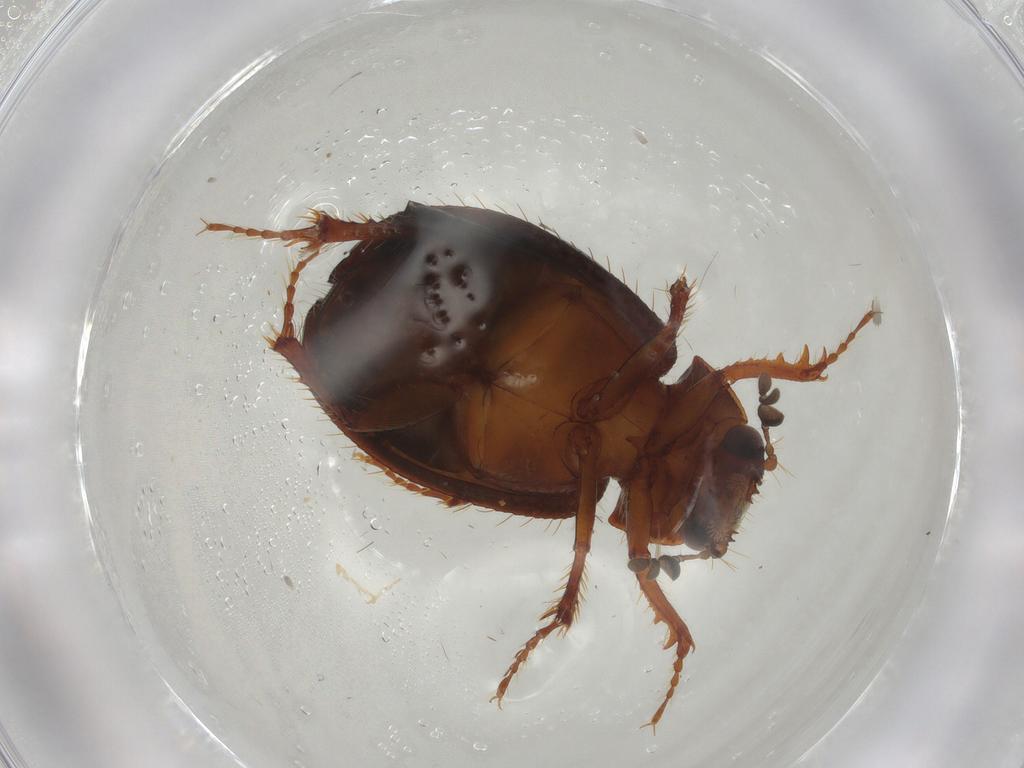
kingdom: Animalia
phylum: Arthropoda
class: Insecta
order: Coleoptera
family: Hybosoridae
